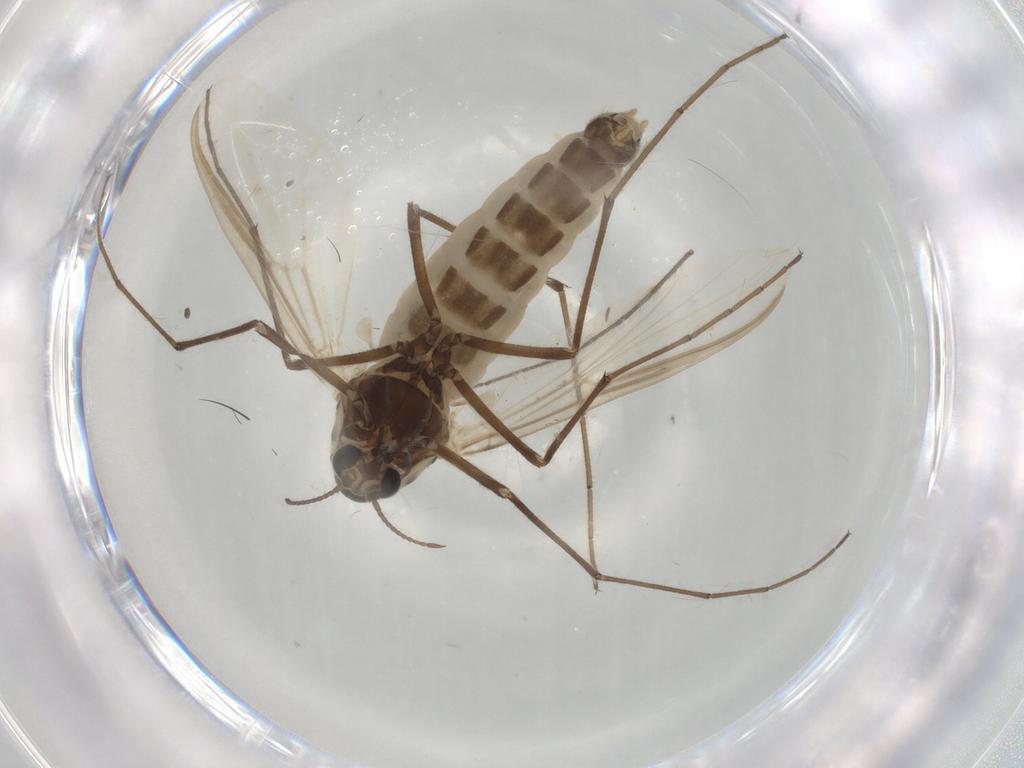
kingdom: Animalia
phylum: Arthropoda
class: Insecta
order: Diptera
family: Chironomidae
